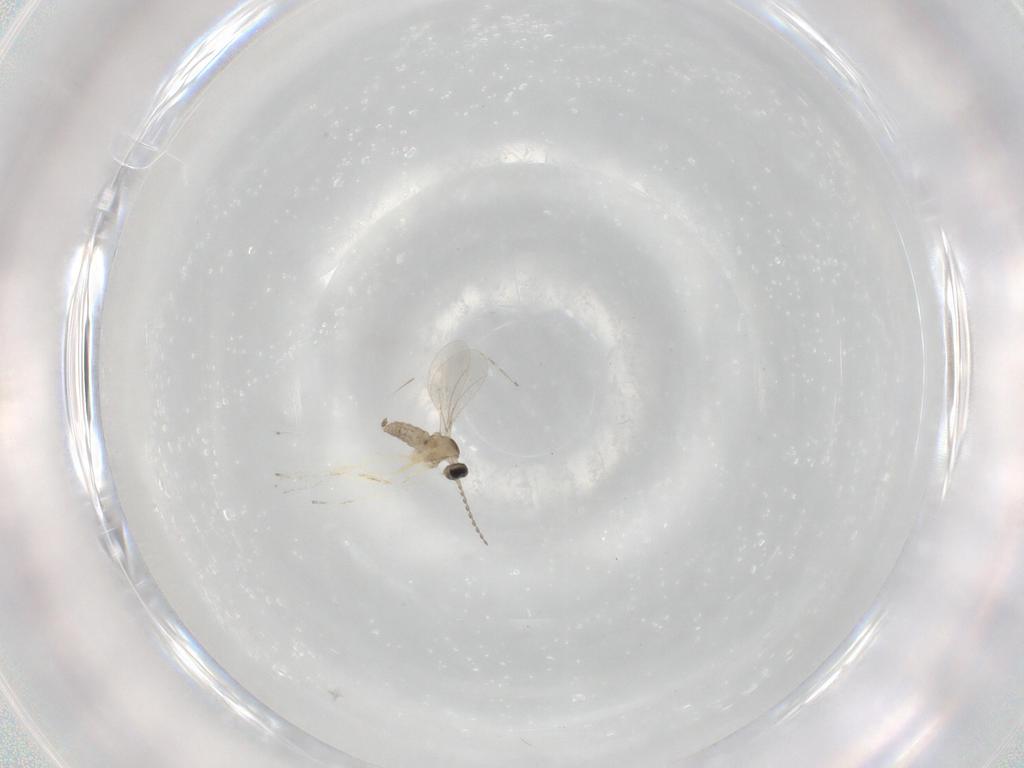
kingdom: Animalia
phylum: Arthropoda
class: Insecta
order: Diptera
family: Cecidomyiidae
